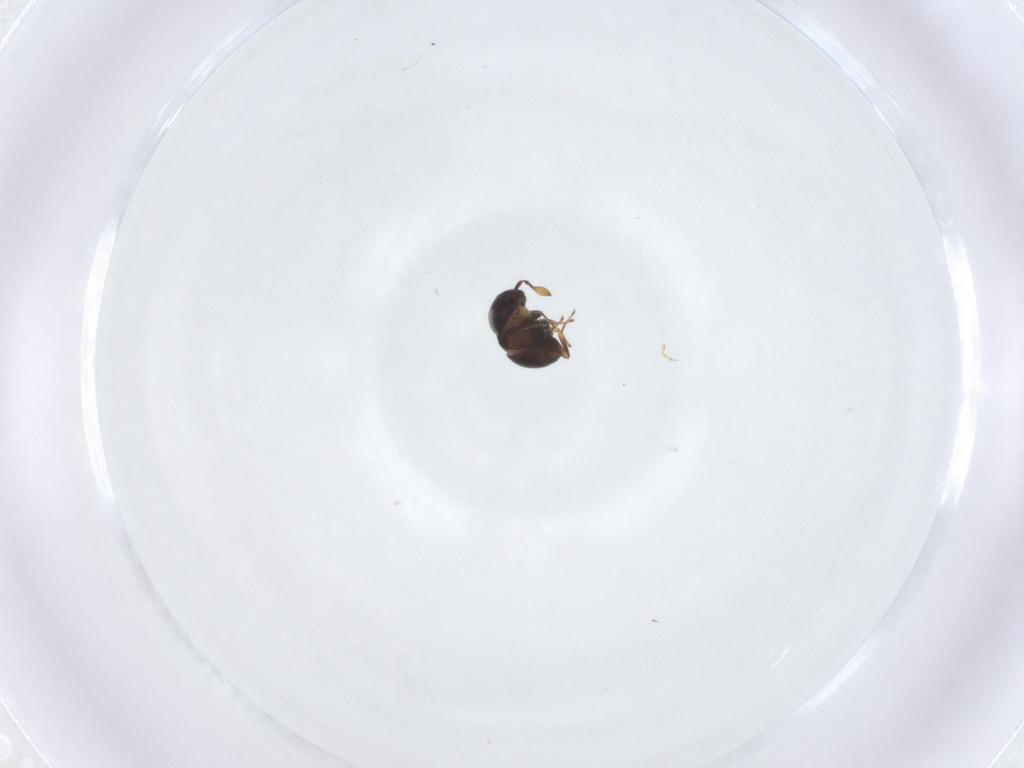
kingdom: Animalia
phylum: Arthropoda
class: Insecta
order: Hymenoptera
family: Scelionidae
